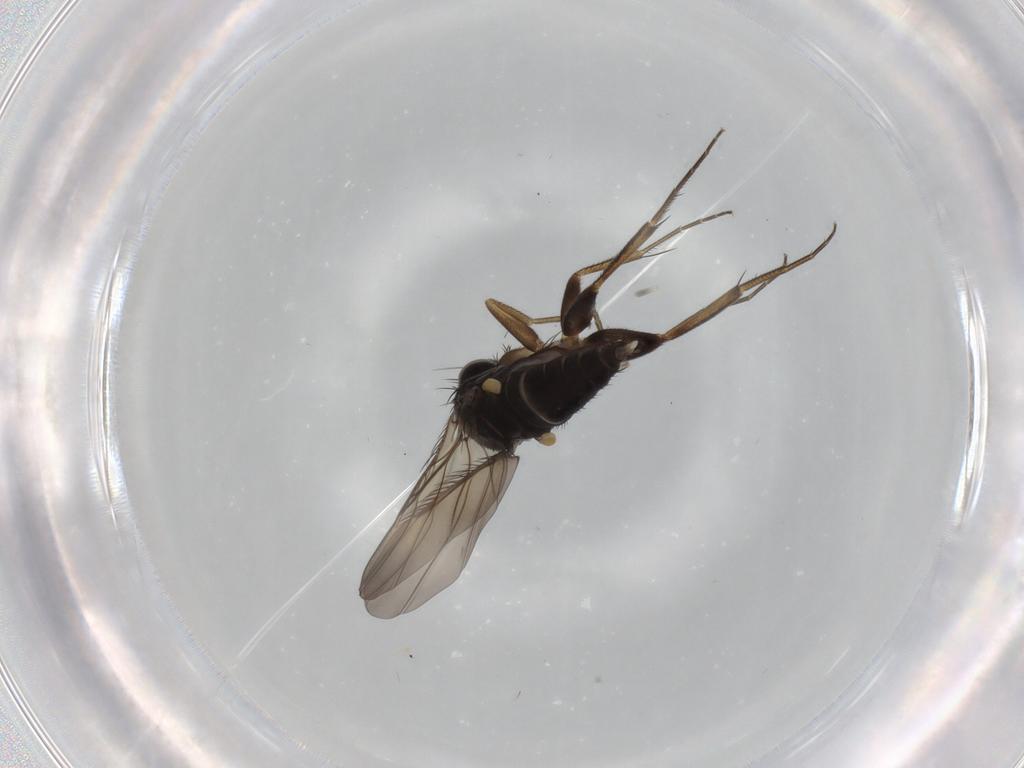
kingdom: Animalia
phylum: Arthropoda
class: Insecta
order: Diptera
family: Phoridae
